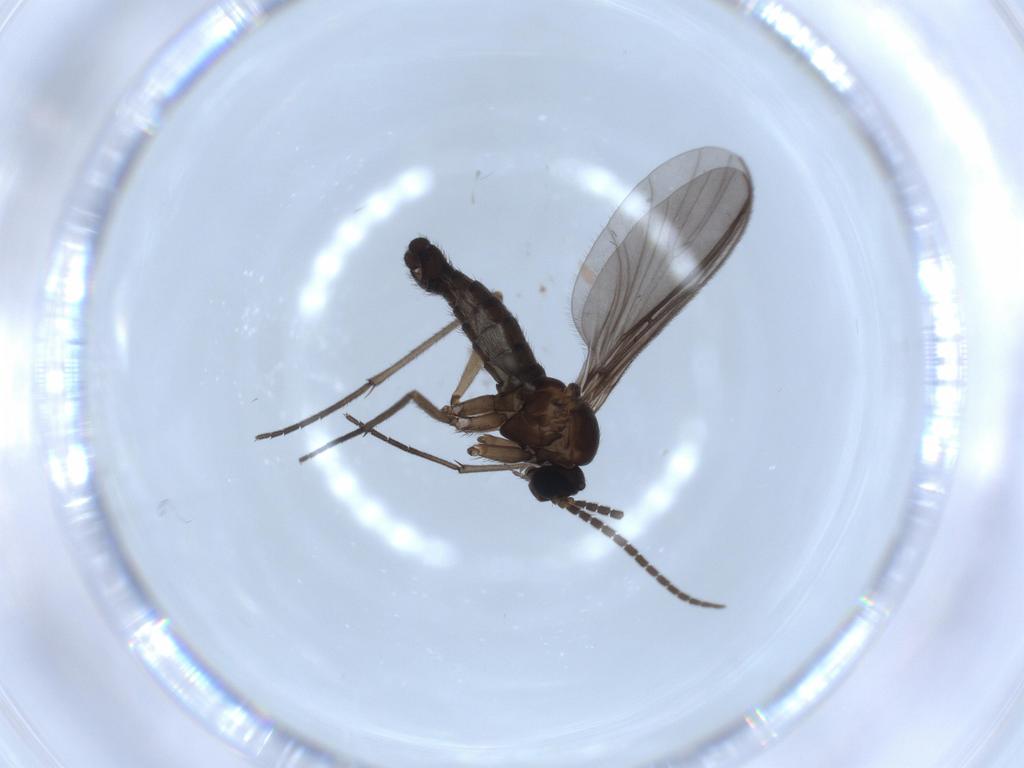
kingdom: Animalia
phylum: Arthropoda
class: Insecta
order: Diptera
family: Sciaridae
